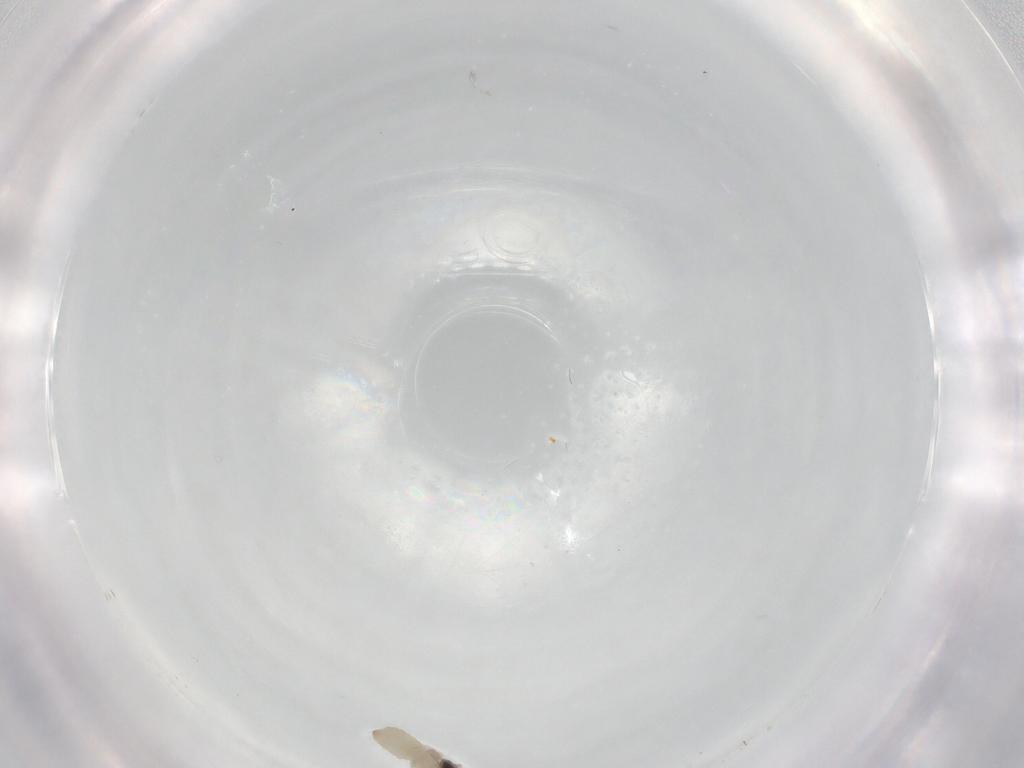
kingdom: Animalia
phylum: Arthropoda
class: Insecta
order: Diptera
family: Cecidomyiidae
